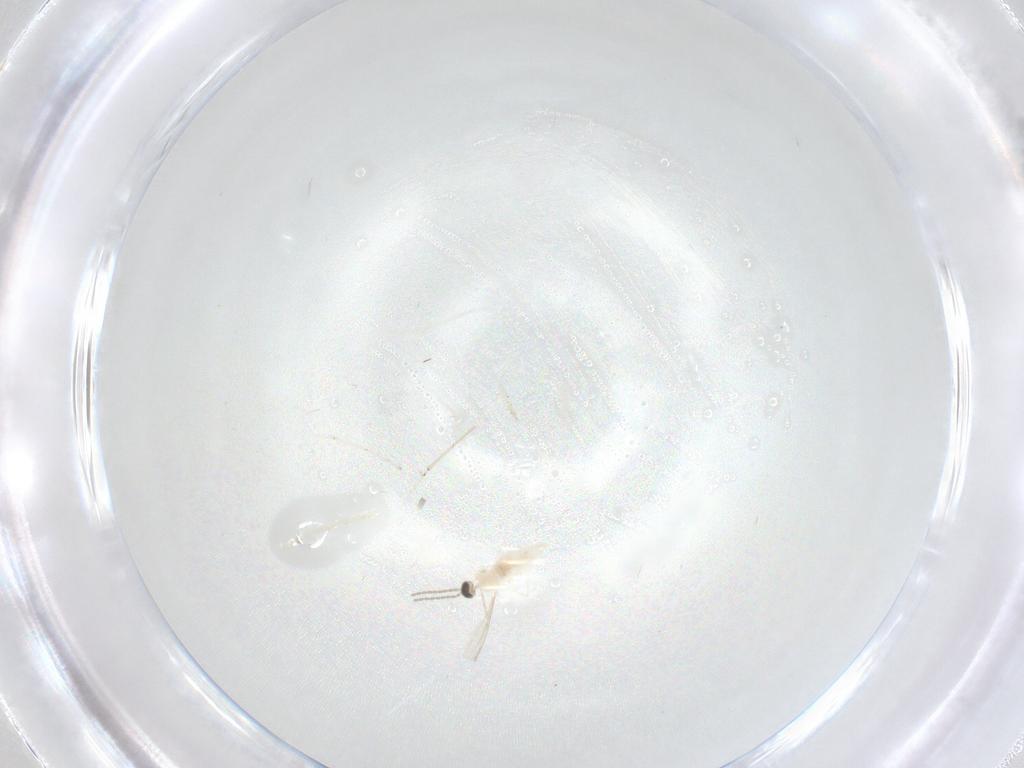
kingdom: Animalia
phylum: Arthropoda
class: Insecta
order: Diptera
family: Cecidomyiidae
